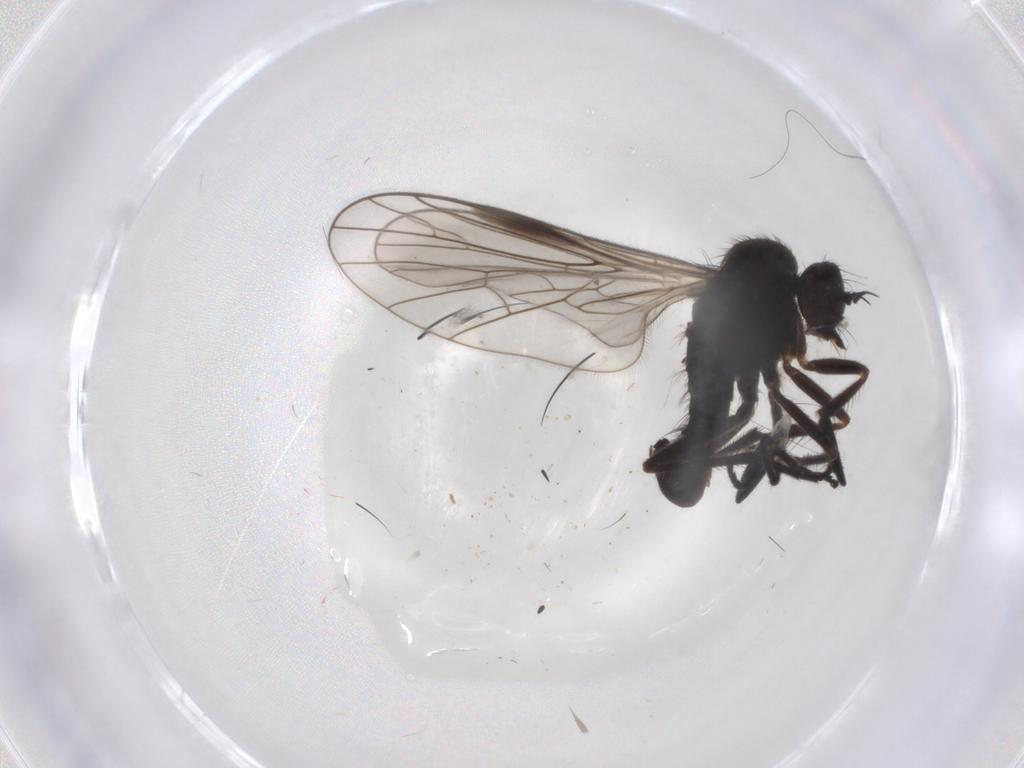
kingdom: Animalia
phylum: Arthropoda
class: Insecta
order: Diptera
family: Empididae
